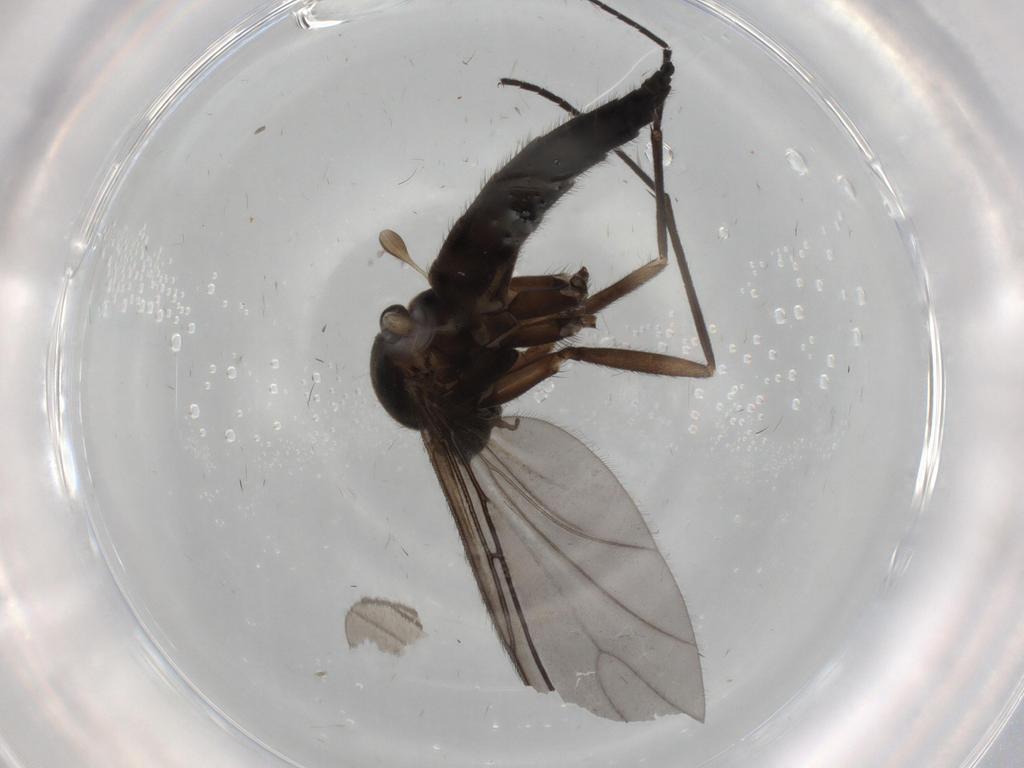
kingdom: Animalia
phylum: Arthropoda
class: Insecta
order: Diptera
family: Sciaridae
